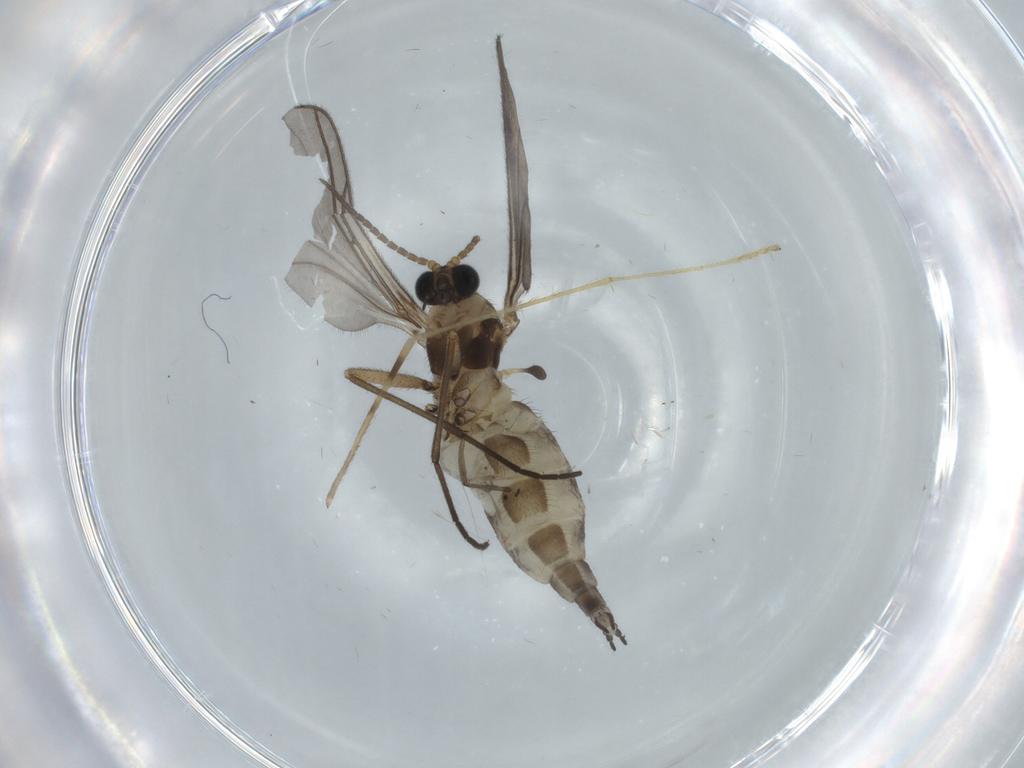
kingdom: Animalia
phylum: Arthropoda
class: Insecta
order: Diptera
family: Sciaridae
